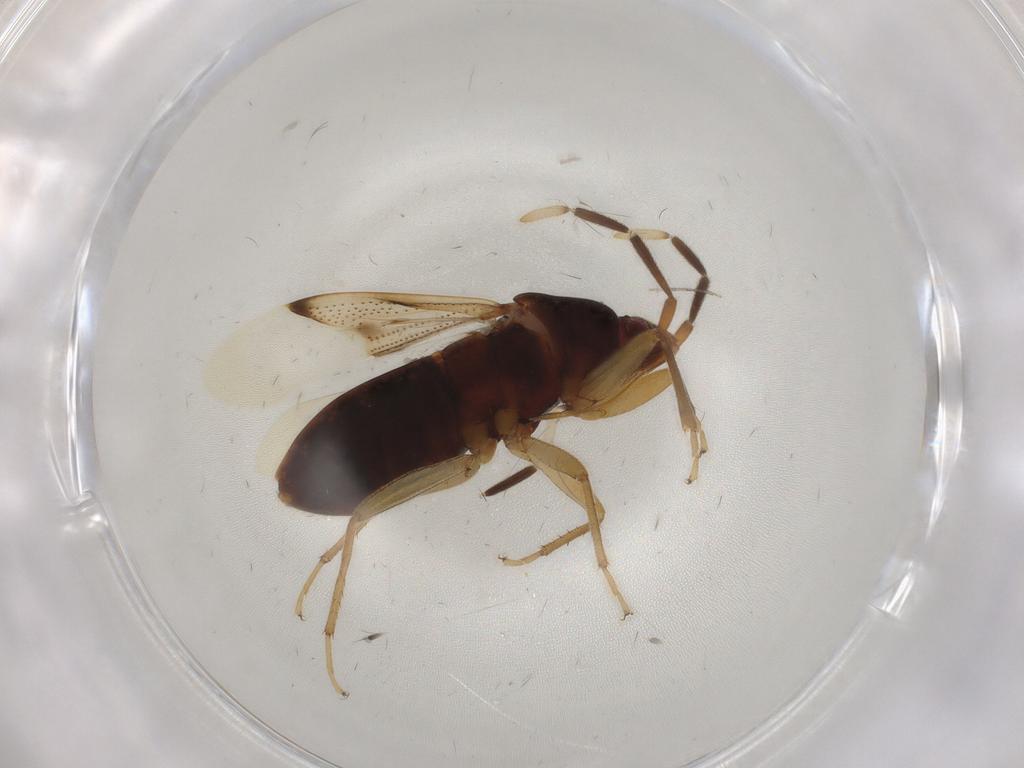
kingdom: Animalia
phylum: Arthropoda
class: Insecta
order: Hemiptera
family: Rhyparochromidae
